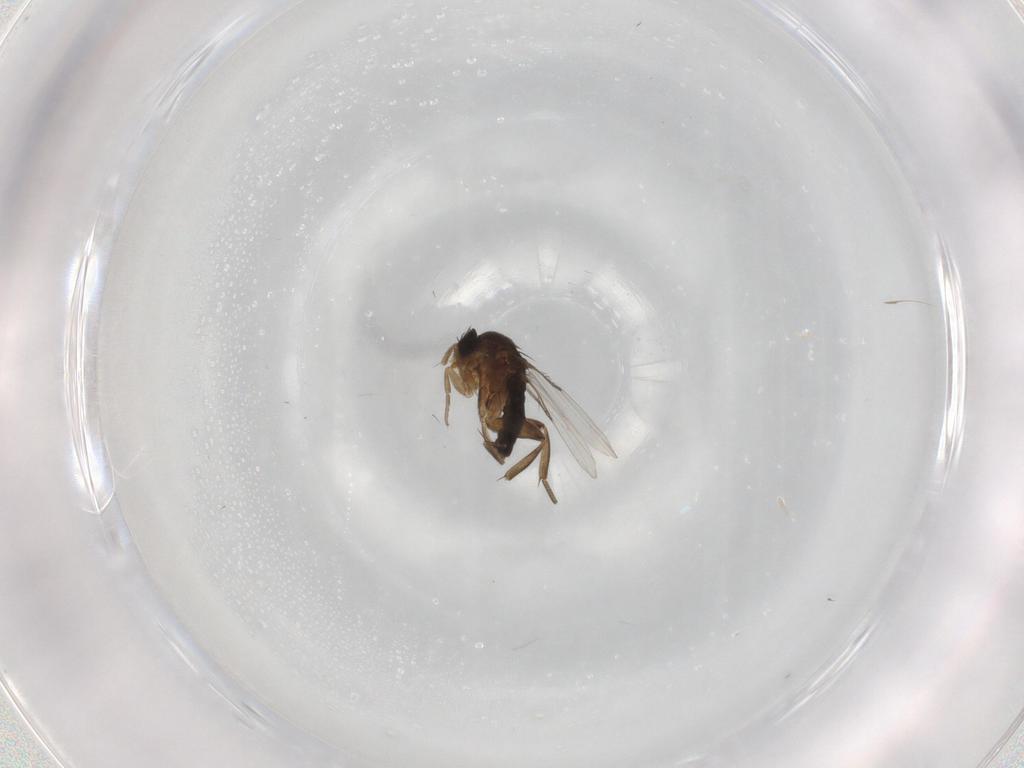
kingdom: Animalia
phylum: Arthropoda
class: Insecta
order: Diptera
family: Phoridae
